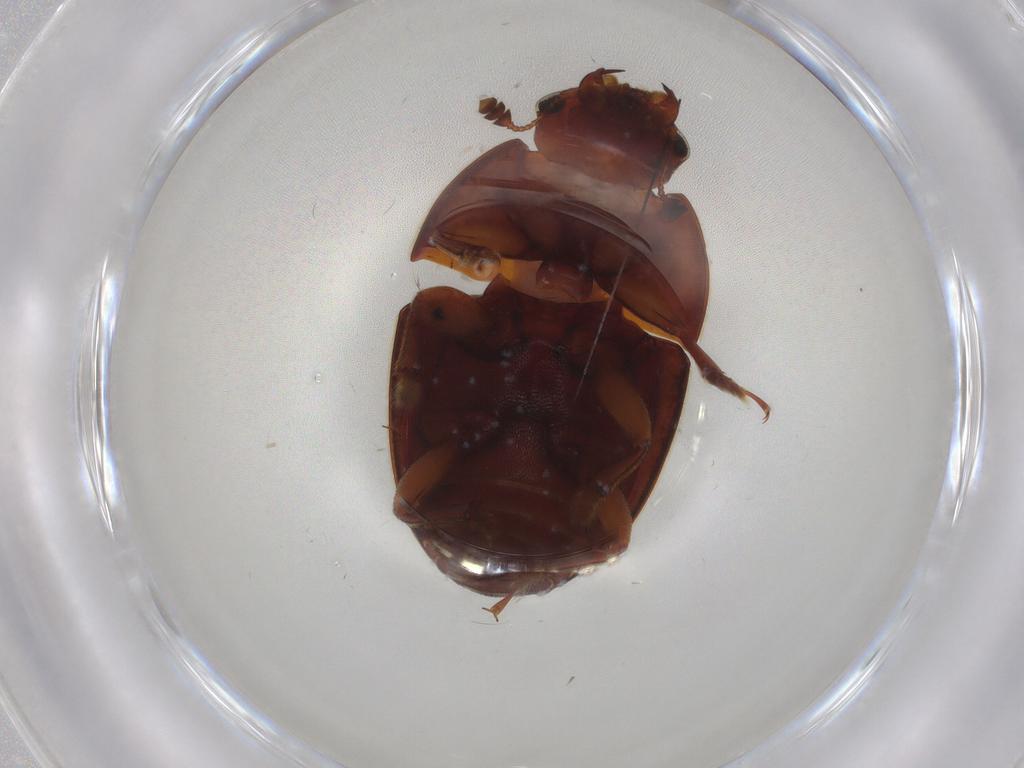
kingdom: Animalia
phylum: Arthropoda
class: Insecta
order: Coleoptera
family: Nitidulidae
